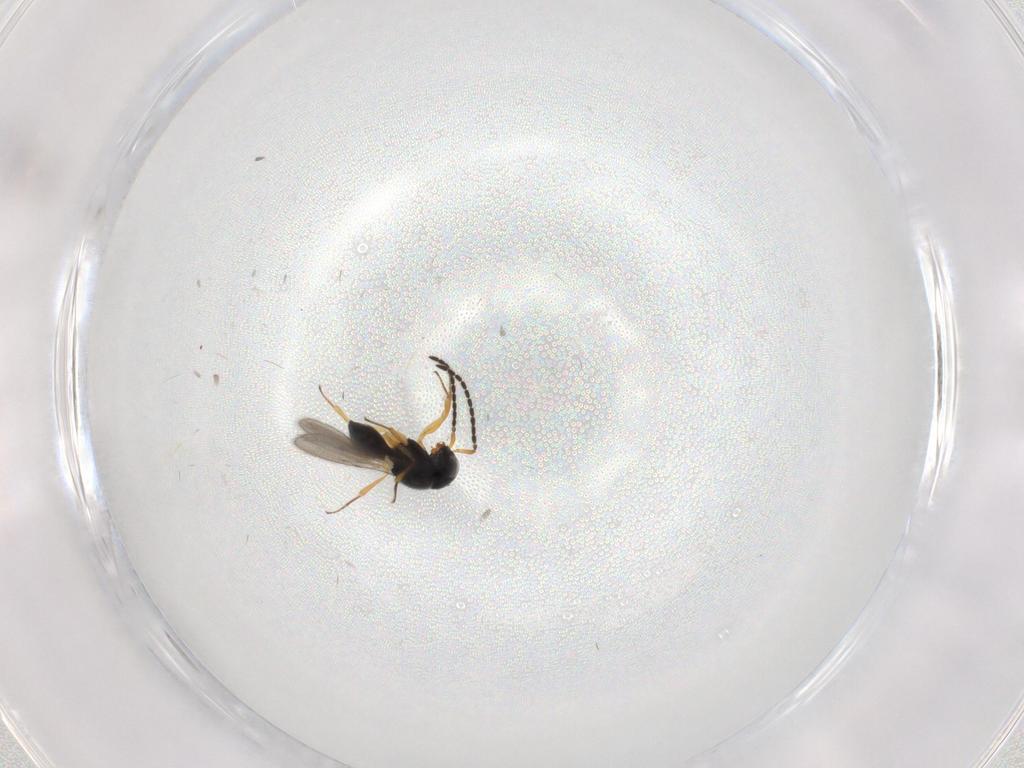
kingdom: Animalia
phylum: Arthropoda
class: Insecta
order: Hymenoptera
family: Scelionidae
